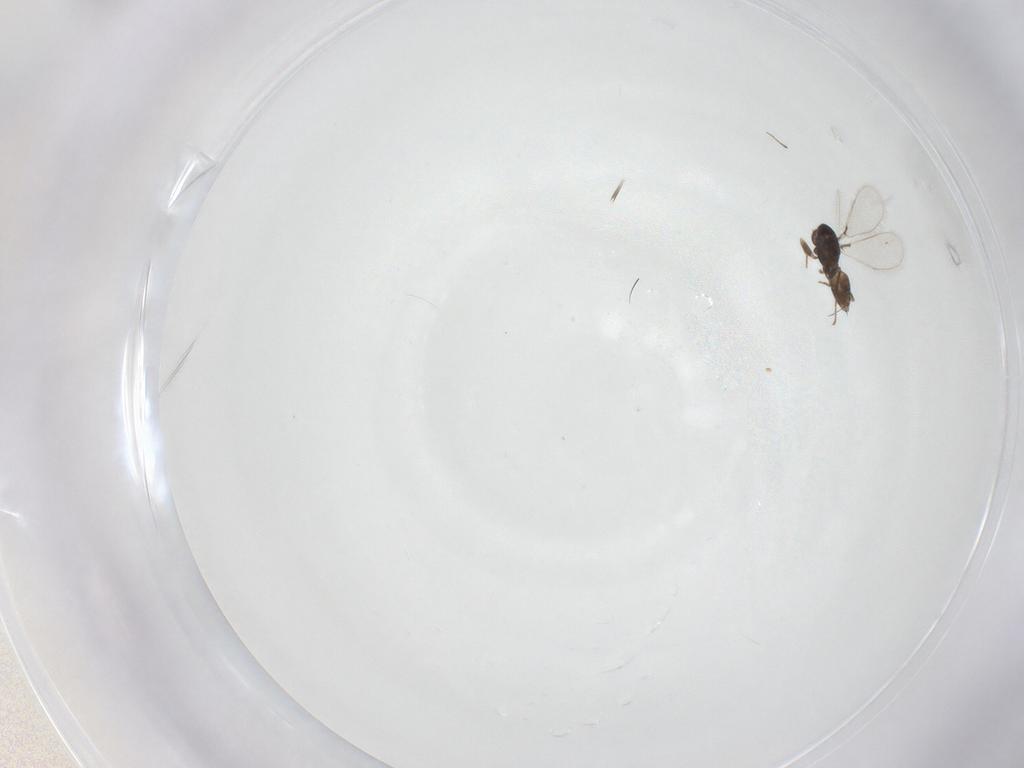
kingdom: Animalia
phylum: Arthropoda
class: Insecta
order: Hymenoptera
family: Mymaridae
